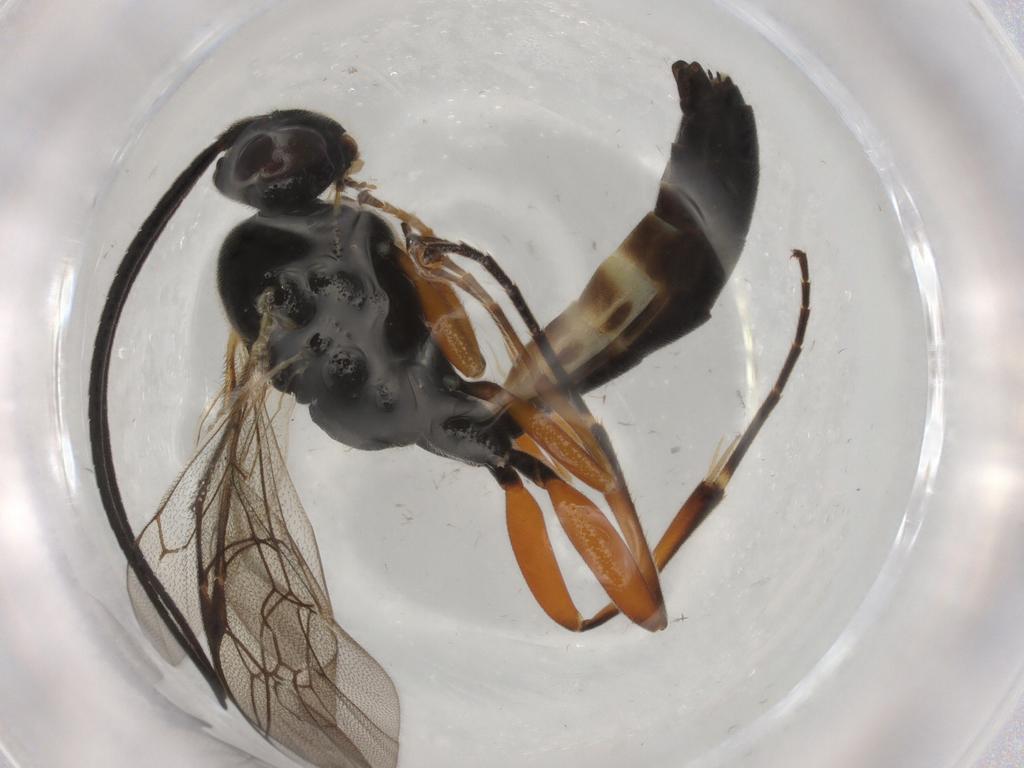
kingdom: Animalia
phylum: Arthropoda
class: Insecta
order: Hymenoptera
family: Ichneumonidae
